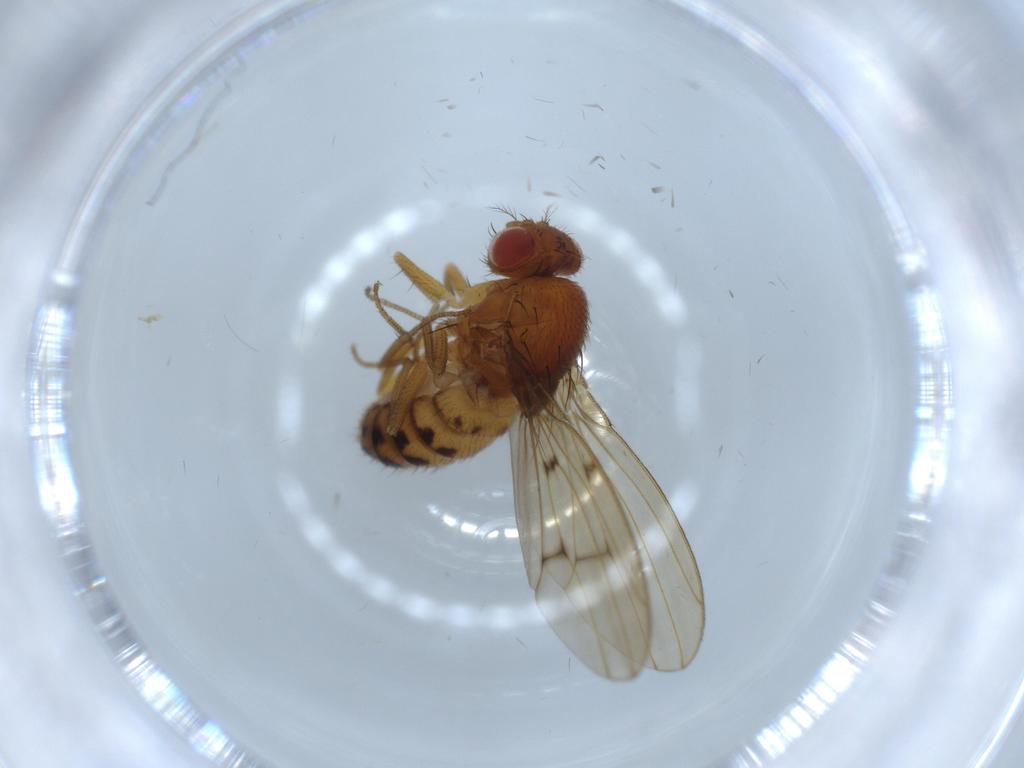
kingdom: Animalia
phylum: Arthropoda
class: Insecta
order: Diptera
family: Drosophilidae
